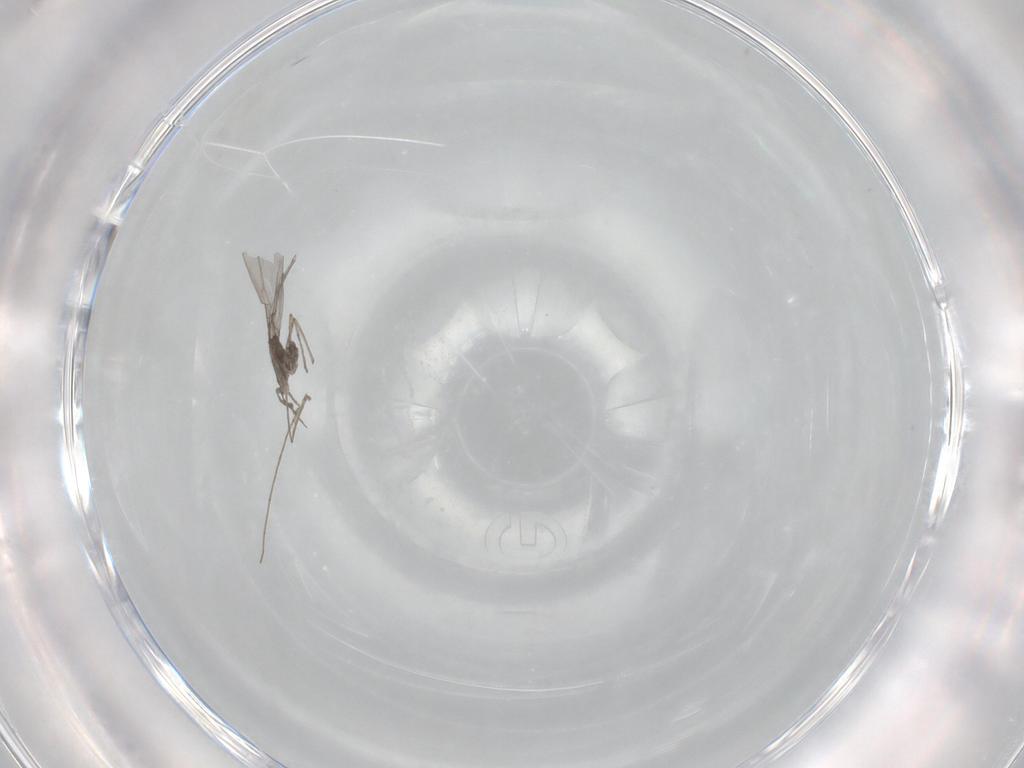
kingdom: Animalia
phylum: Arthropoda
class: Insecta
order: Diptera
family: Cecidomyiidae
